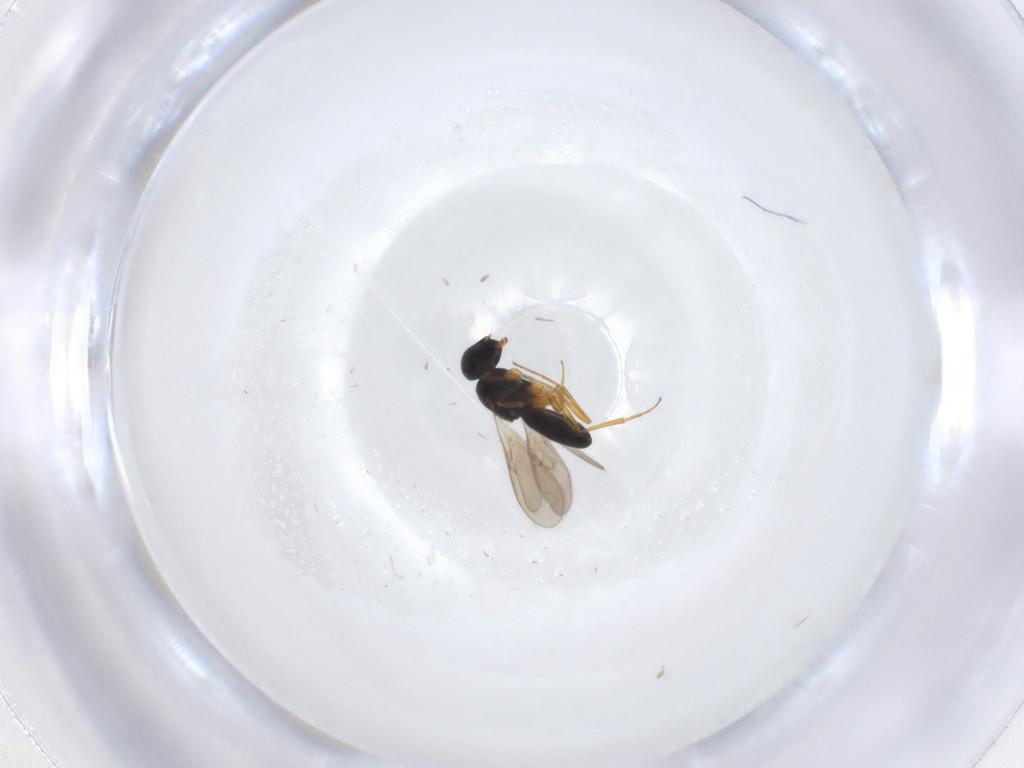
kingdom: Animalia
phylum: Arthropoda
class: Insecta
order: Hymenoptera
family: Scelionidae
